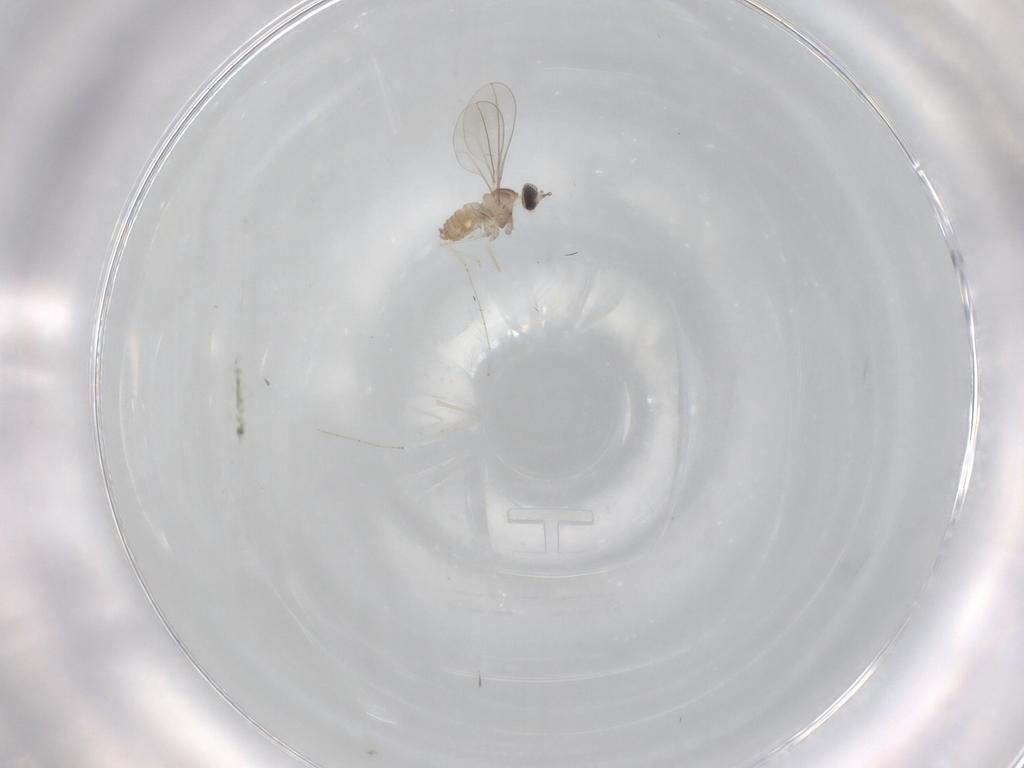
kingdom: Animalia
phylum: Arthropoda
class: Insecta
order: Diptera
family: Cecidomyiidae
